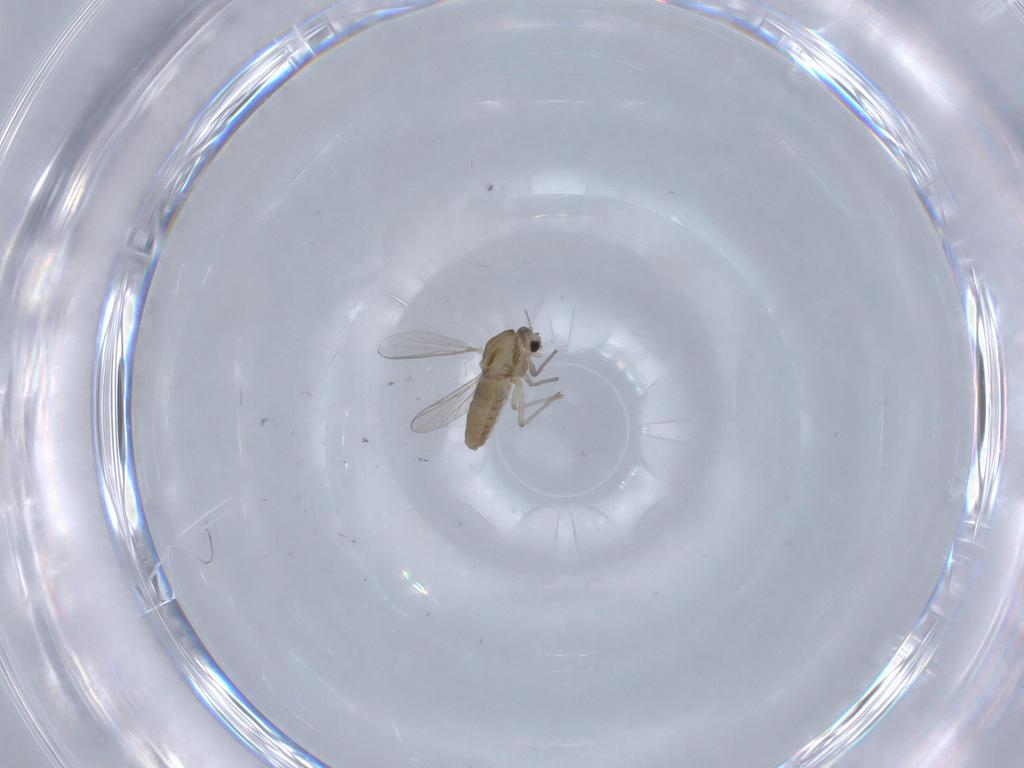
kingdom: Animalia
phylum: Arthropoda
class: Insecta
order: Diptera
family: Chironomidae
